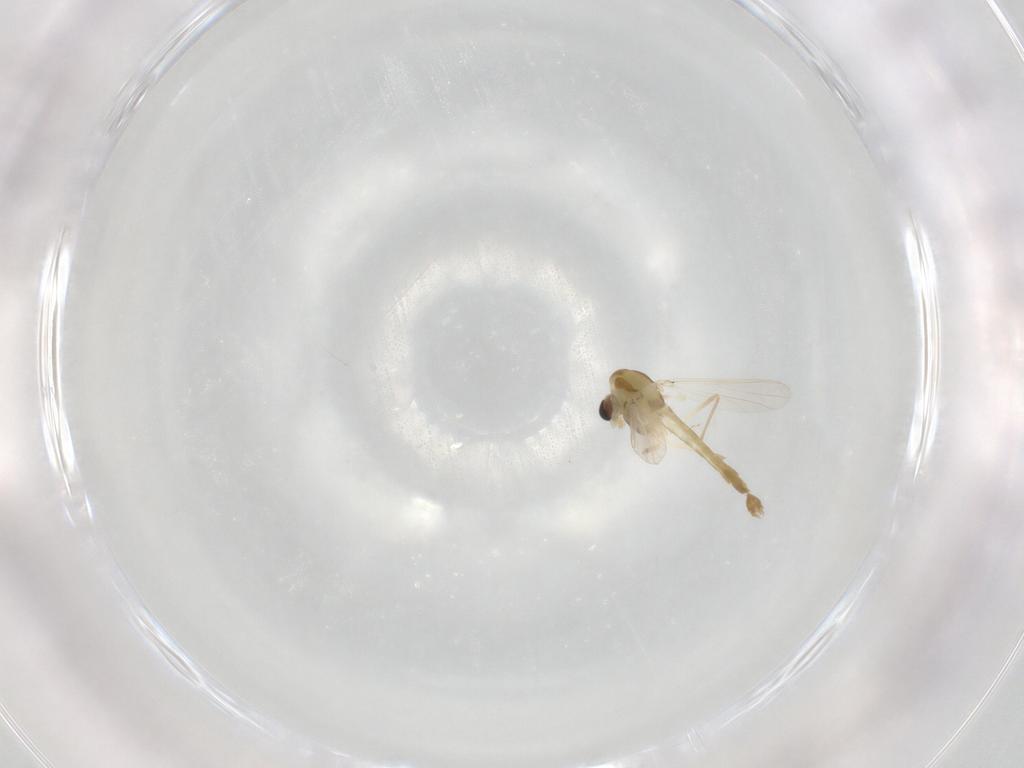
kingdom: Animalia
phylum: Arthropoda
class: Insecta
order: Diptera
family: Chironomidae
